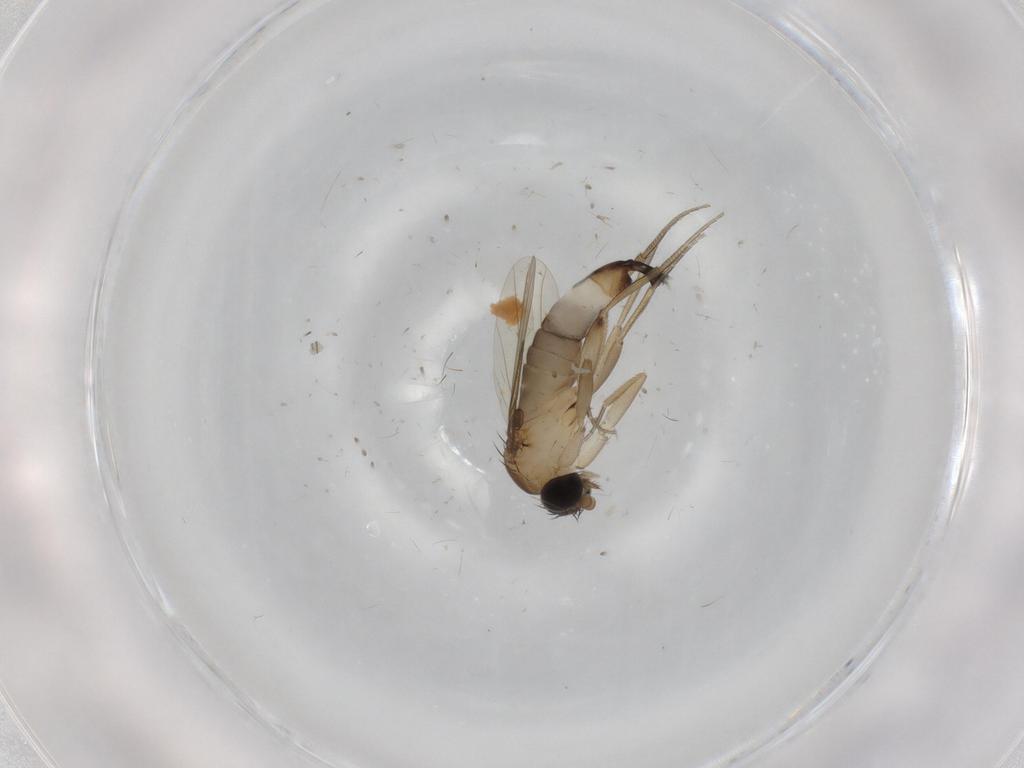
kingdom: Animalia
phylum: Arthropoda
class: Insecta
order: Diptera
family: Phoridae
